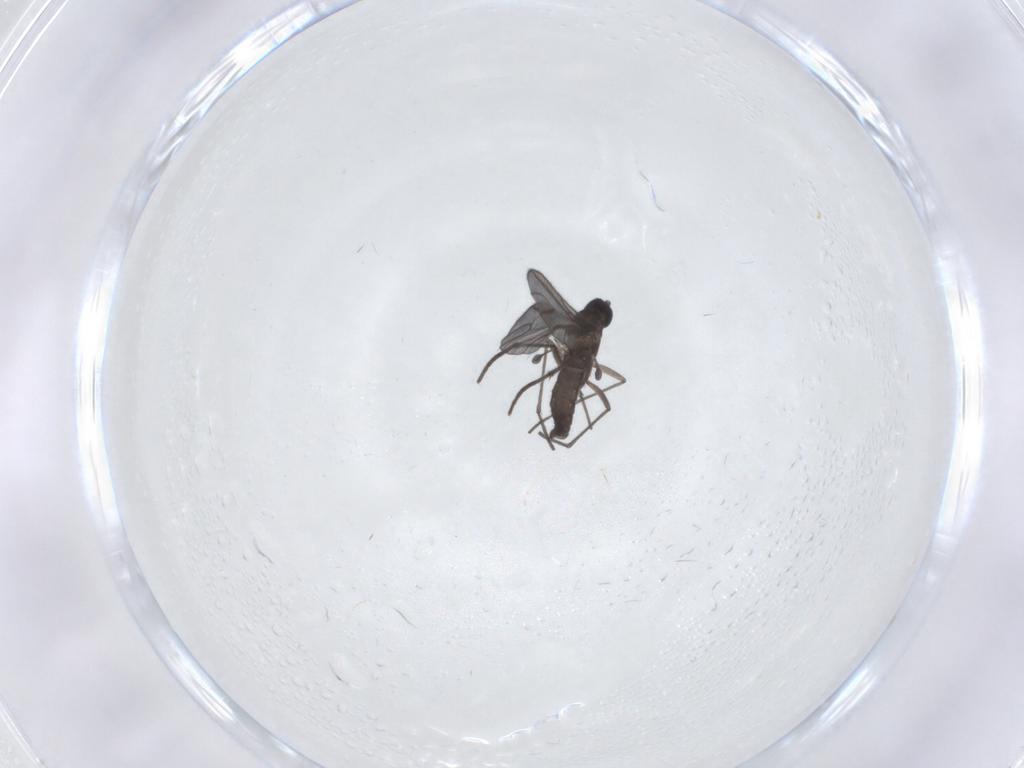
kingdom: Animalia
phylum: Arthropoda
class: Insecta
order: Diptera
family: Sciaridae
